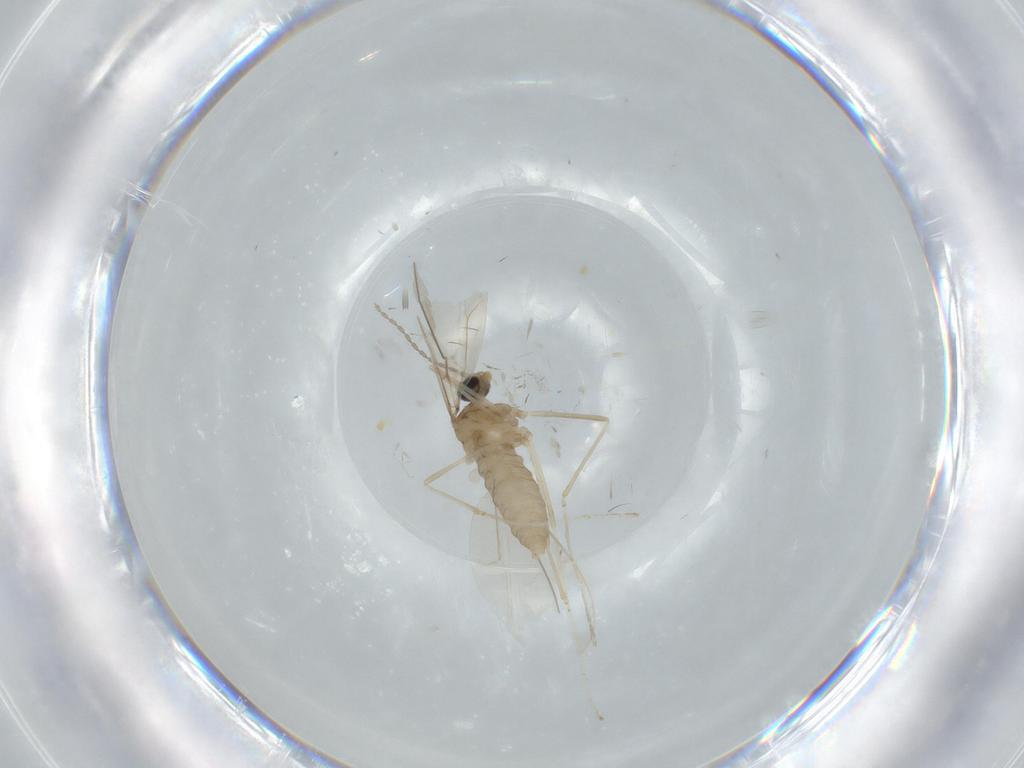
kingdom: Animalia
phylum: Arthropoda
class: Insecta
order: Diptera
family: Cecidomyiidae
